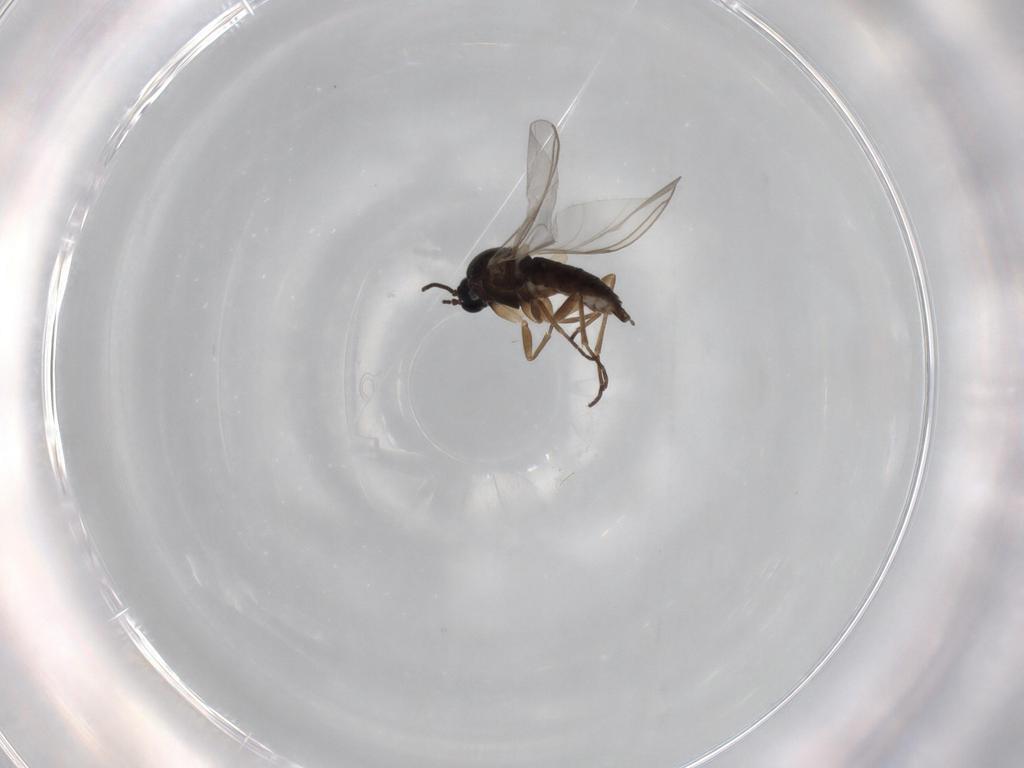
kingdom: Animalia
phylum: Arthropoda
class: Insecta
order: Diptera
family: Sciaridae
